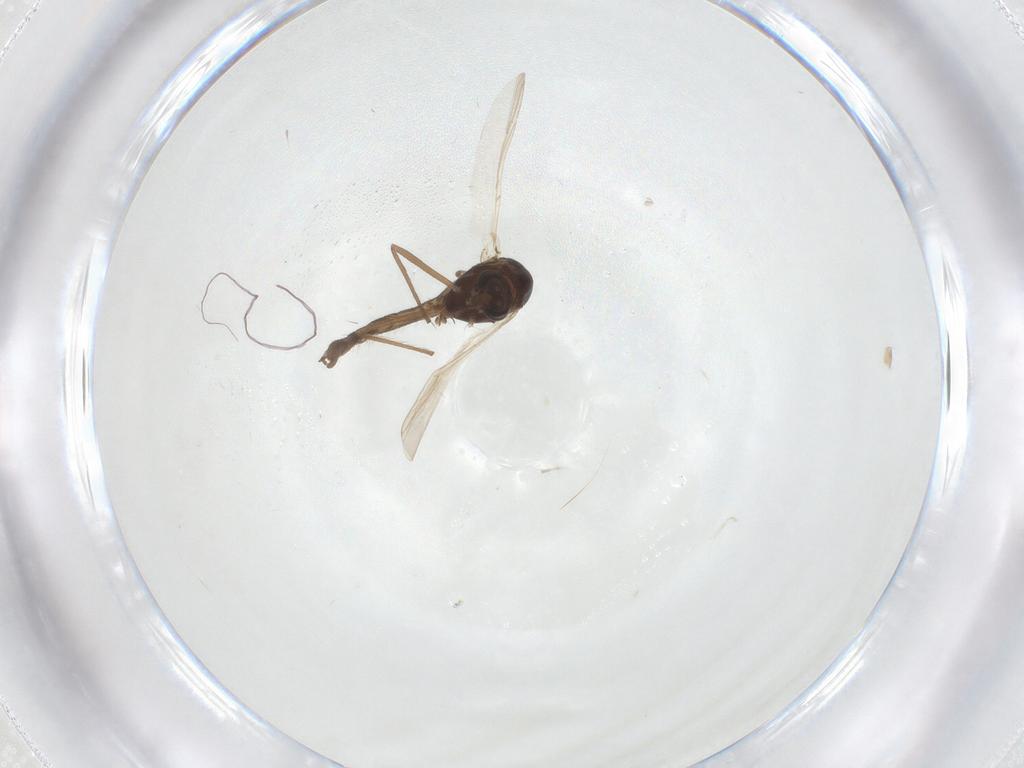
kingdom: Animalia
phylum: Arthropoda
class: Insecta
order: Diptera
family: Chironomidae
